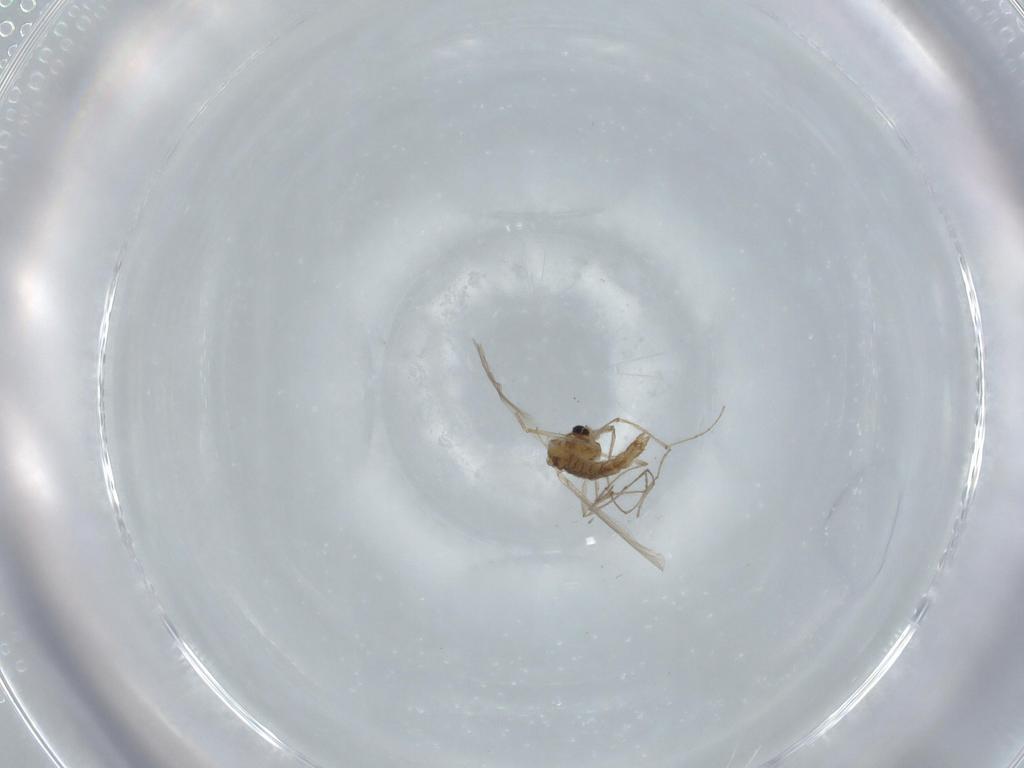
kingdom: Animalia
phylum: Arthropoda
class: Insecta
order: Diptera
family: Chironomidae
